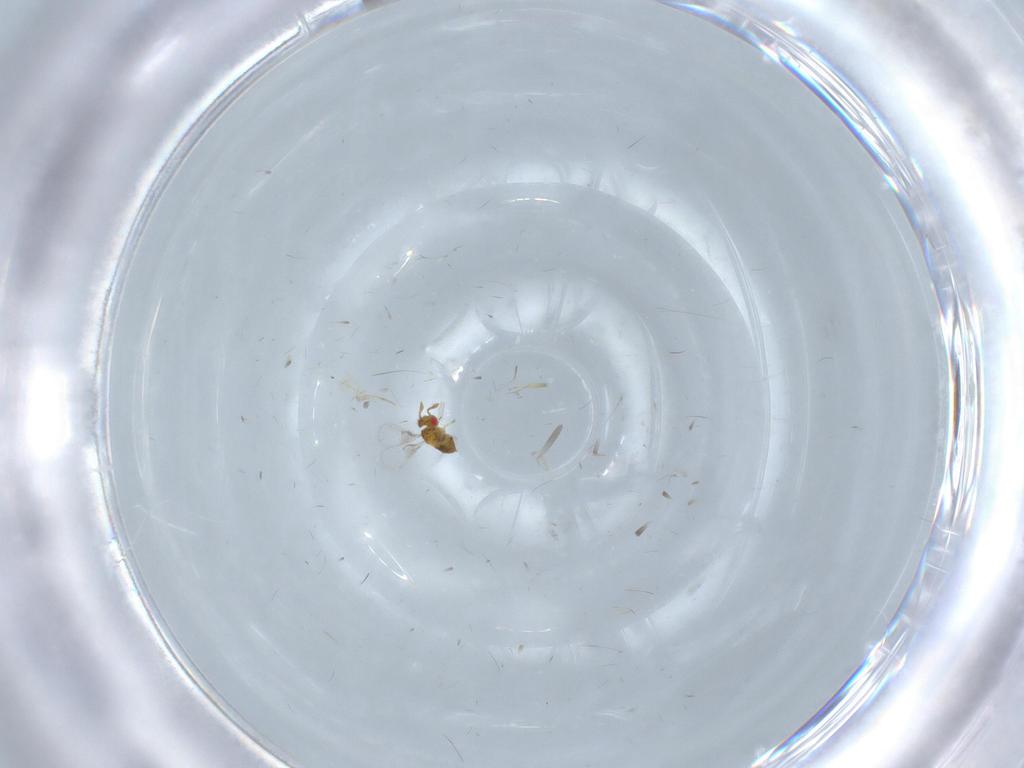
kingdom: Animalia
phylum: Arthropoda
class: Insecta
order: Hymenoptera
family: Trichogrammatidae
